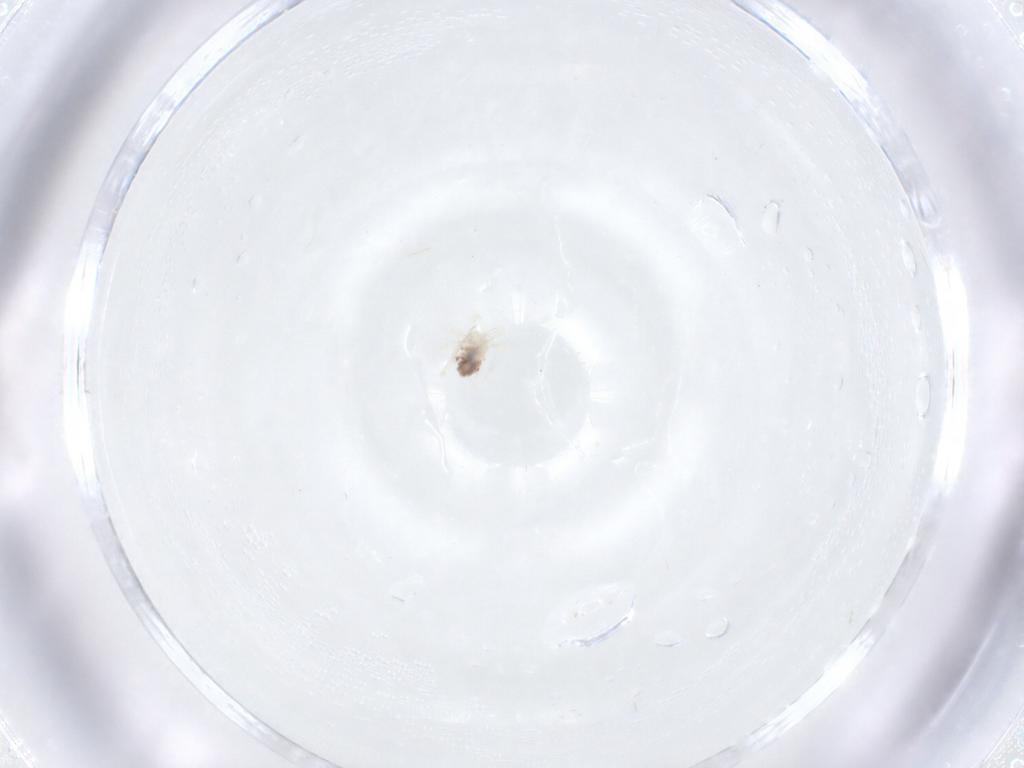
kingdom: Animalia
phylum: Arthropoda
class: Arachnida
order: Trombidiformes
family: Anystidae
